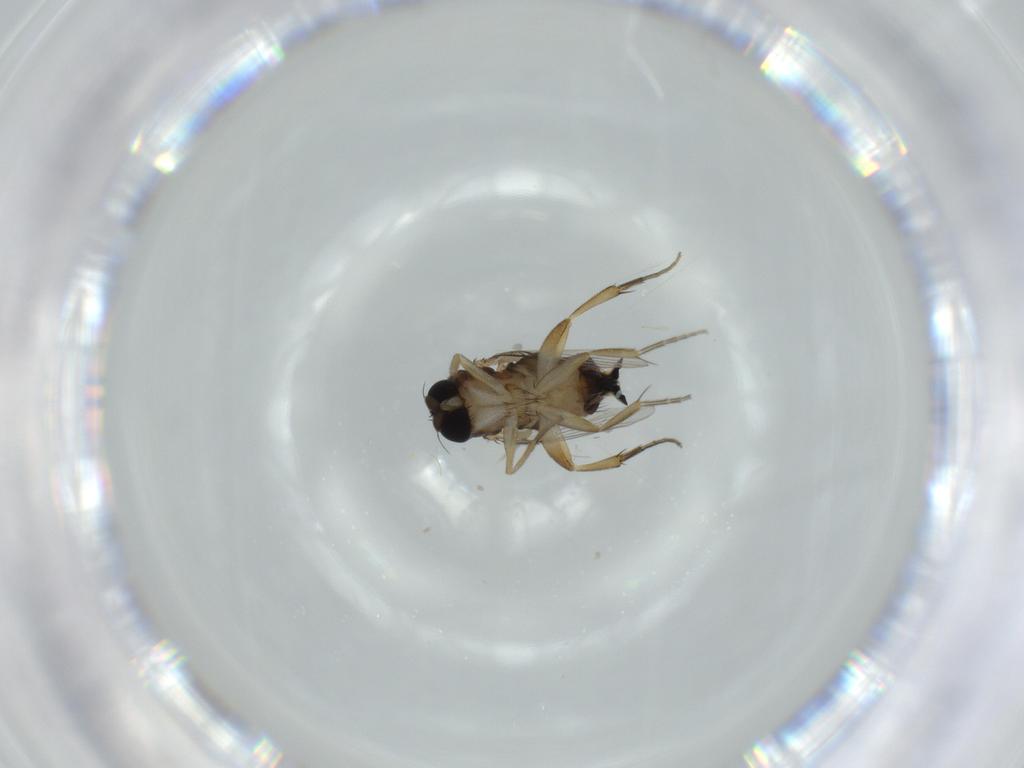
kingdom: Animalia
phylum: Arthropoda
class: Insecta
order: Diptera
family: Phoridae
